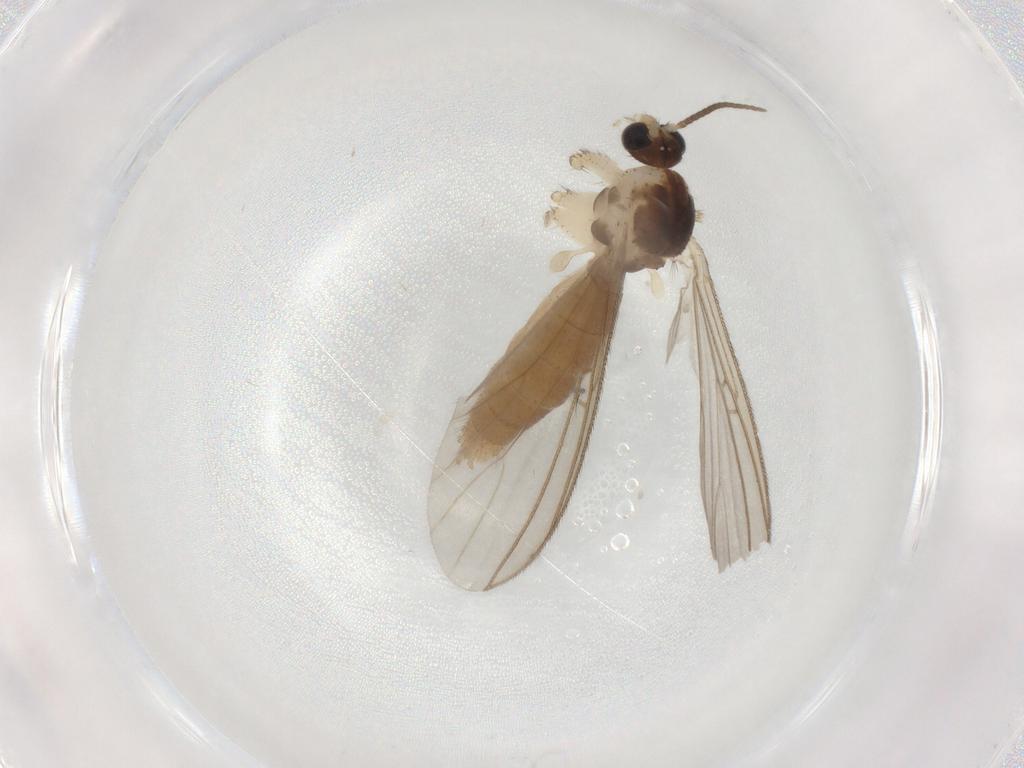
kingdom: Animalia
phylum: Arthropoda
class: Insecta
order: Diptera
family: Chloropidae
